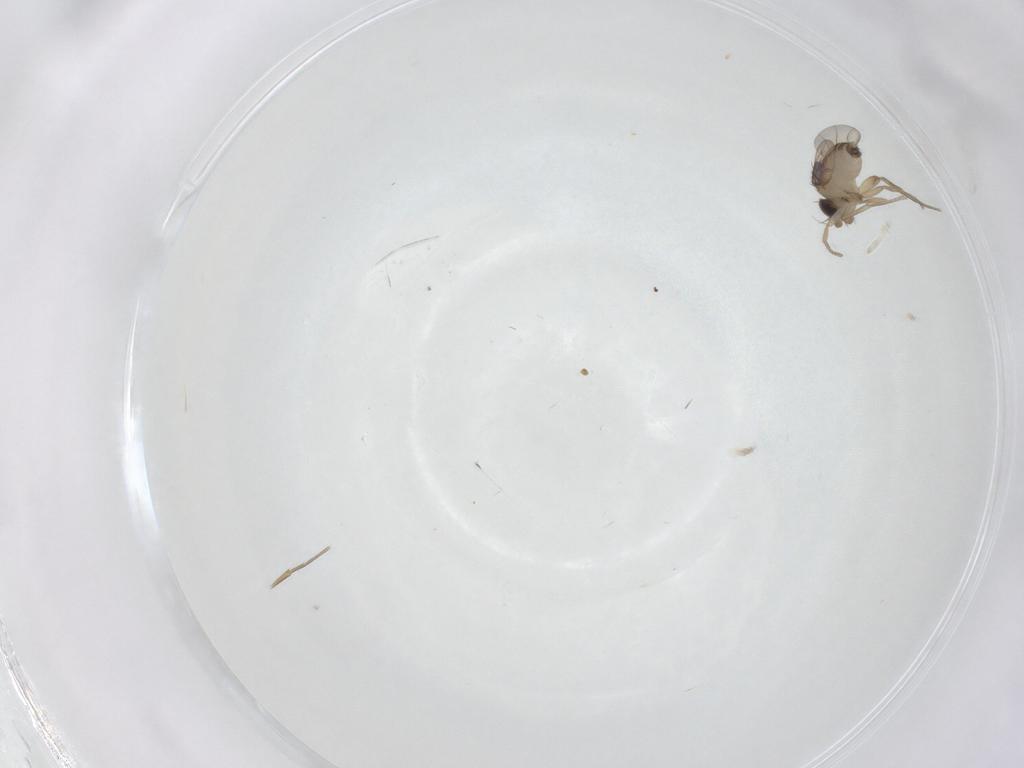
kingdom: Animalia
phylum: Arthropoda
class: Insecta
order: Diptera
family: Phoridae
